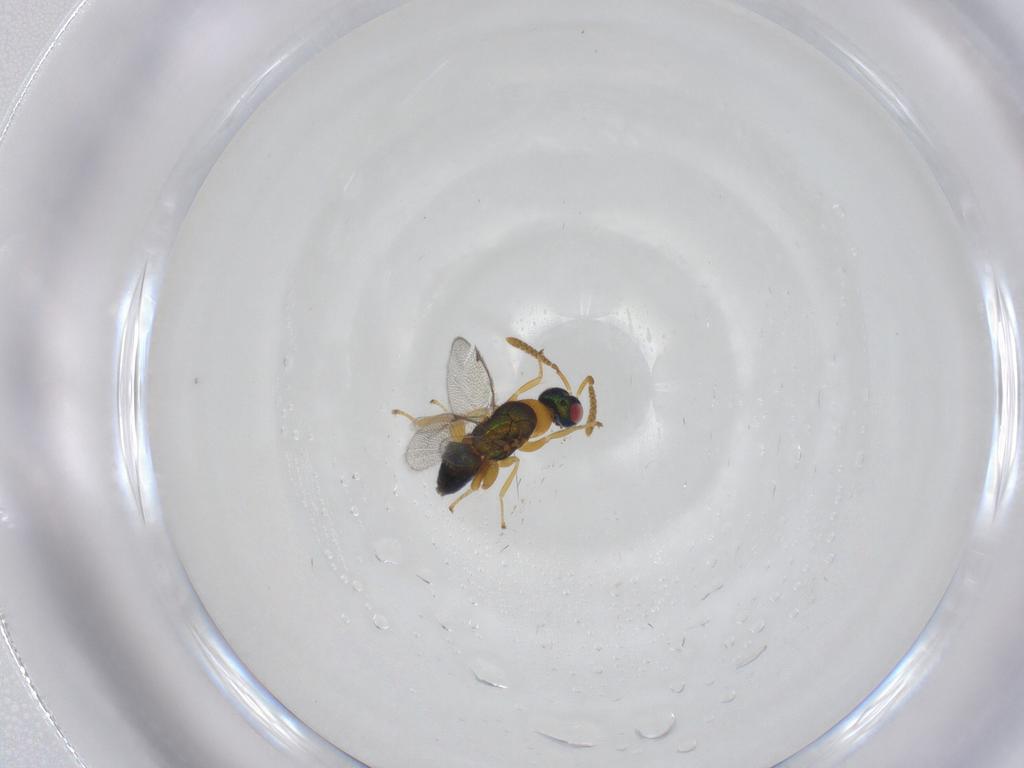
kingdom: Animalia
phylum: Arthropoda
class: Insecta
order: Hymenoptera
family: Torymidae
